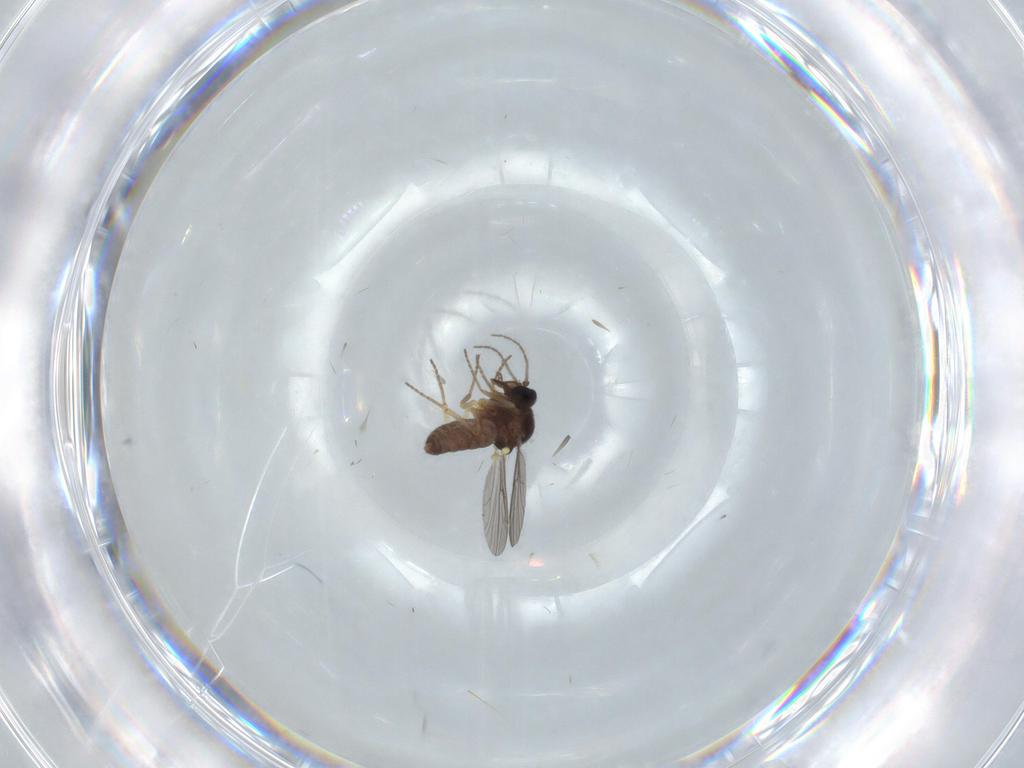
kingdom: Animalia
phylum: Arthropoda
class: Insecta
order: Diptera
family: Ceratopogonidae
